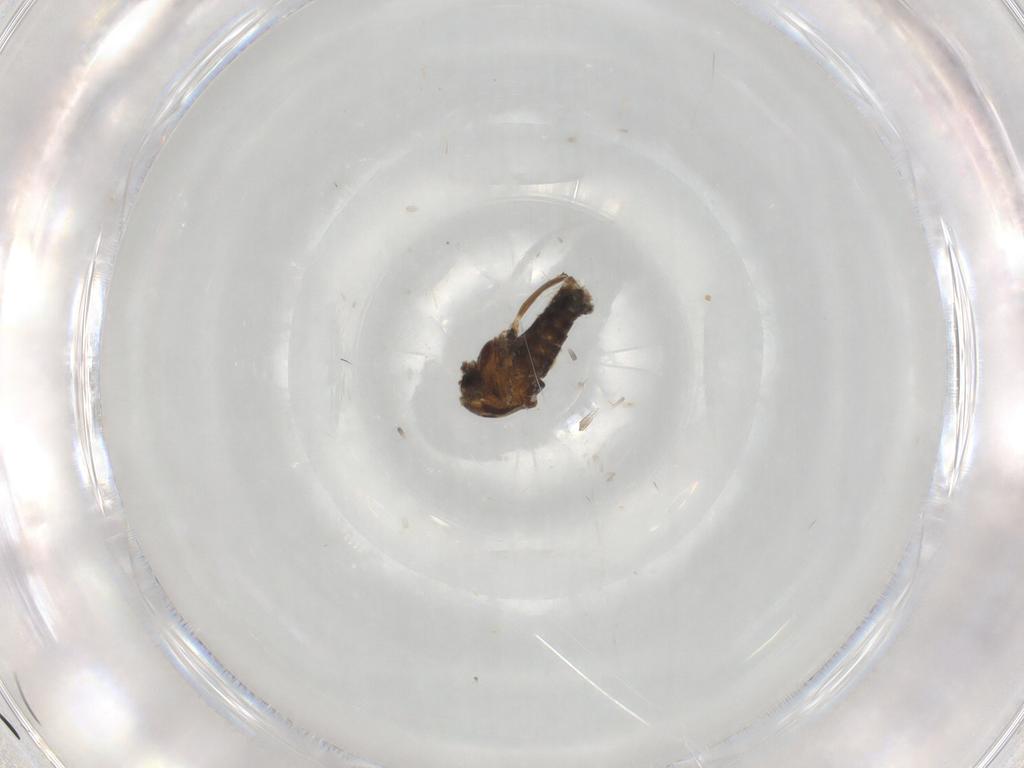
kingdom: Animalia
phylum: Arthropoda
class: Insecta
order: Diptera
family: Chironomidae
